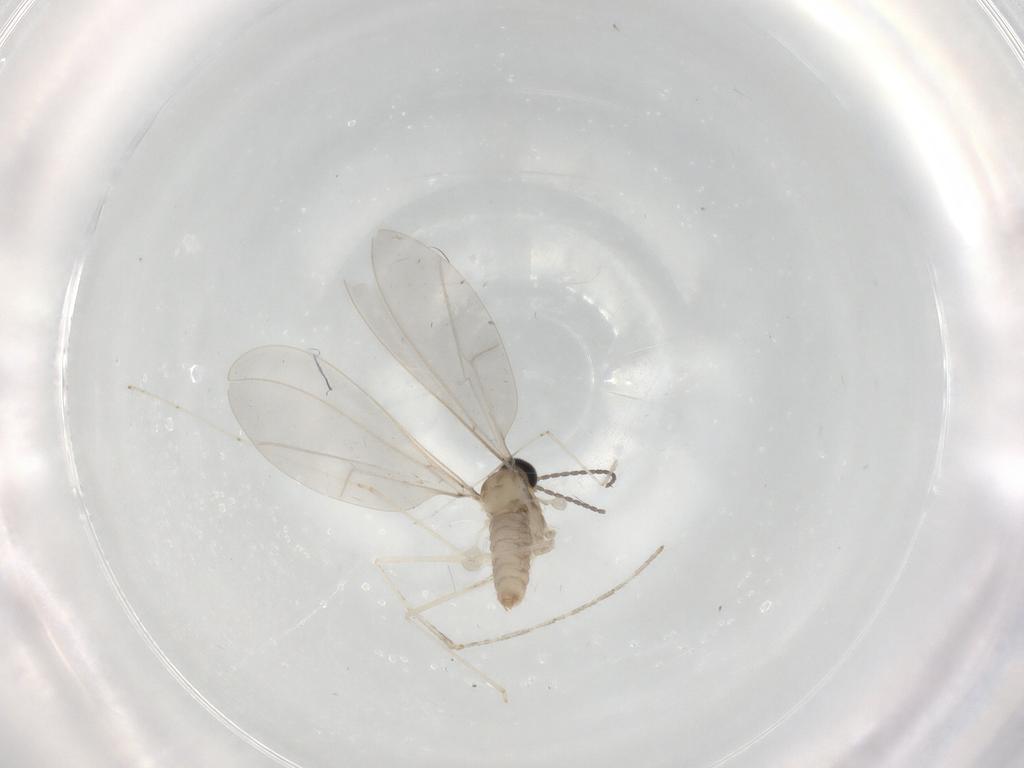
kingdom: Animalia
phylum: Arthropoda
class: Insecta
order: Diptera
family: Cecidomyiidae
